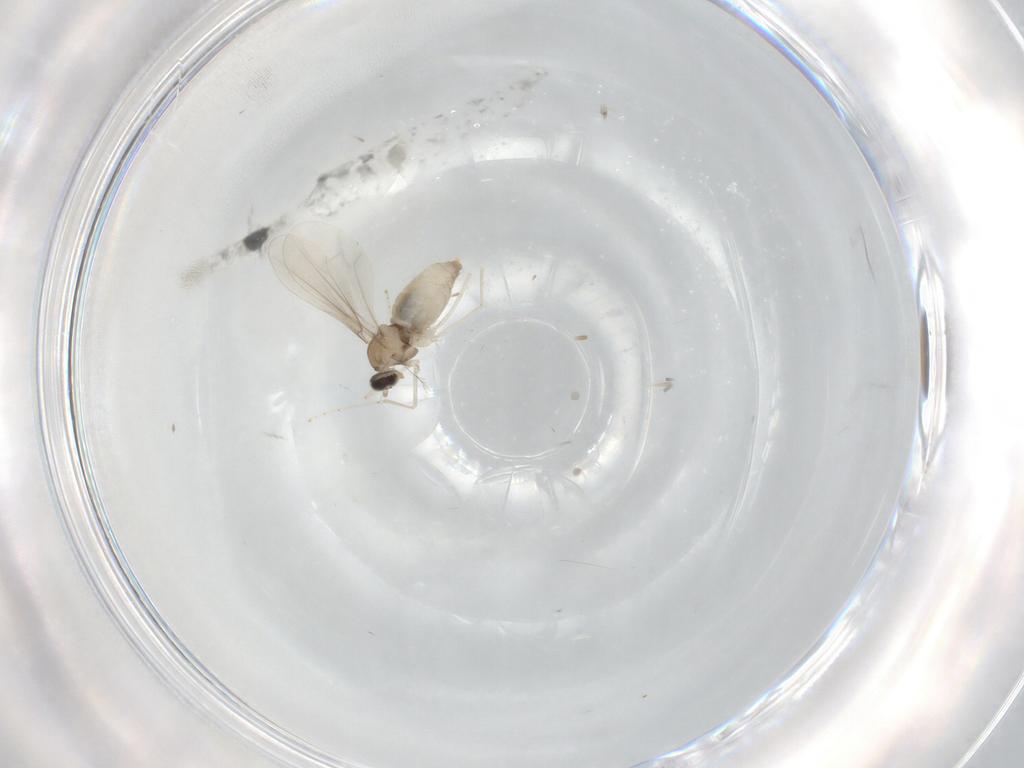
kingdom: Animalia
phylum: Arthropoda
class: Insecta
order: Diptera
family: Cecidomyiidae
